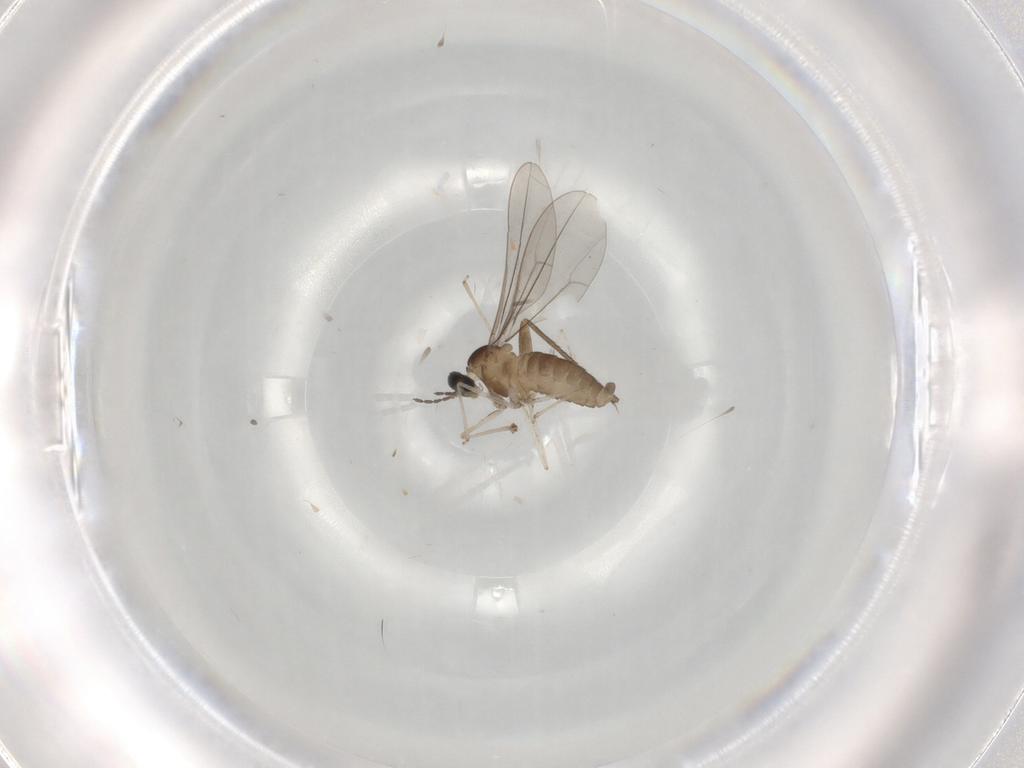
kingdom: Animalia
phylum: Arthropoda
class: Insecta
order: Diptera
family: Cecidomyiidae
